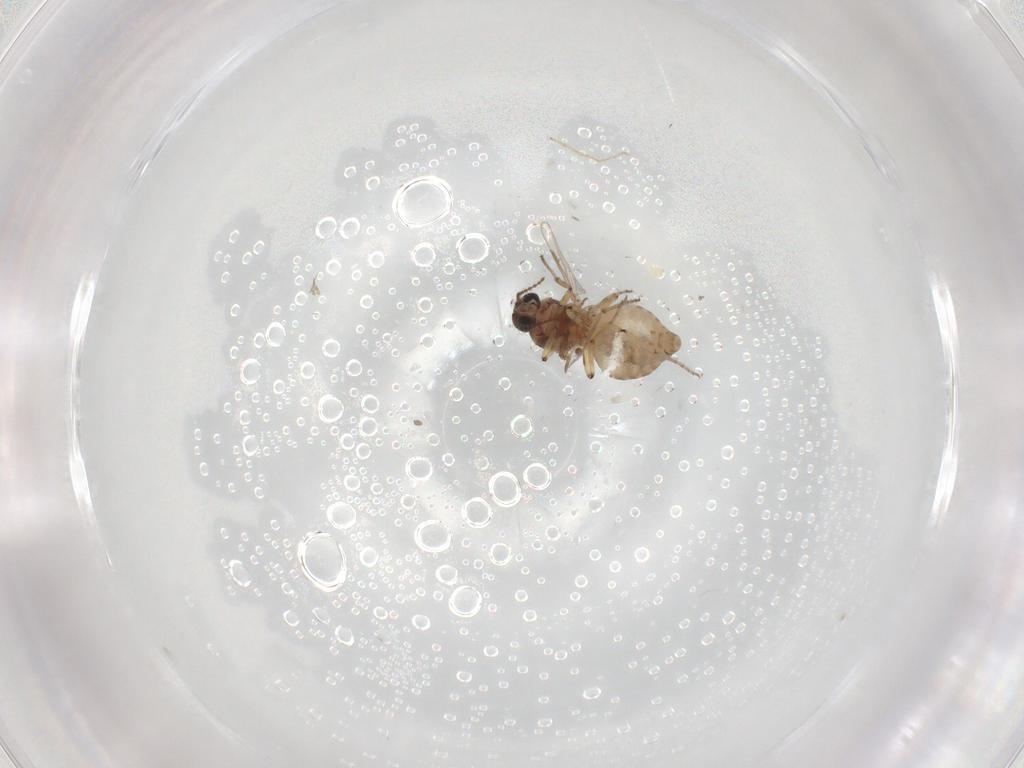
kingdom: Animalia
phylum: Arthropoda
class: Insecta
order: Diptera
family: Ceratopogonidae
